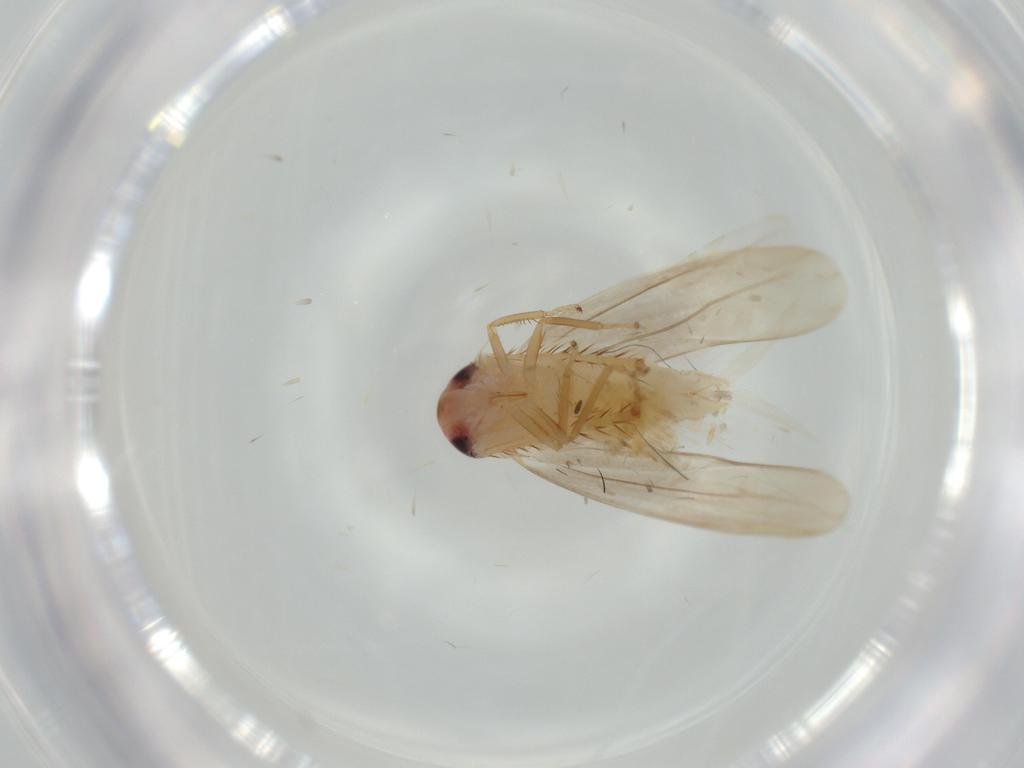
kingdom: Animalia
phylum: Arthropoda
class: Insecta
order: Hemiptera
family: Cicadellidae
